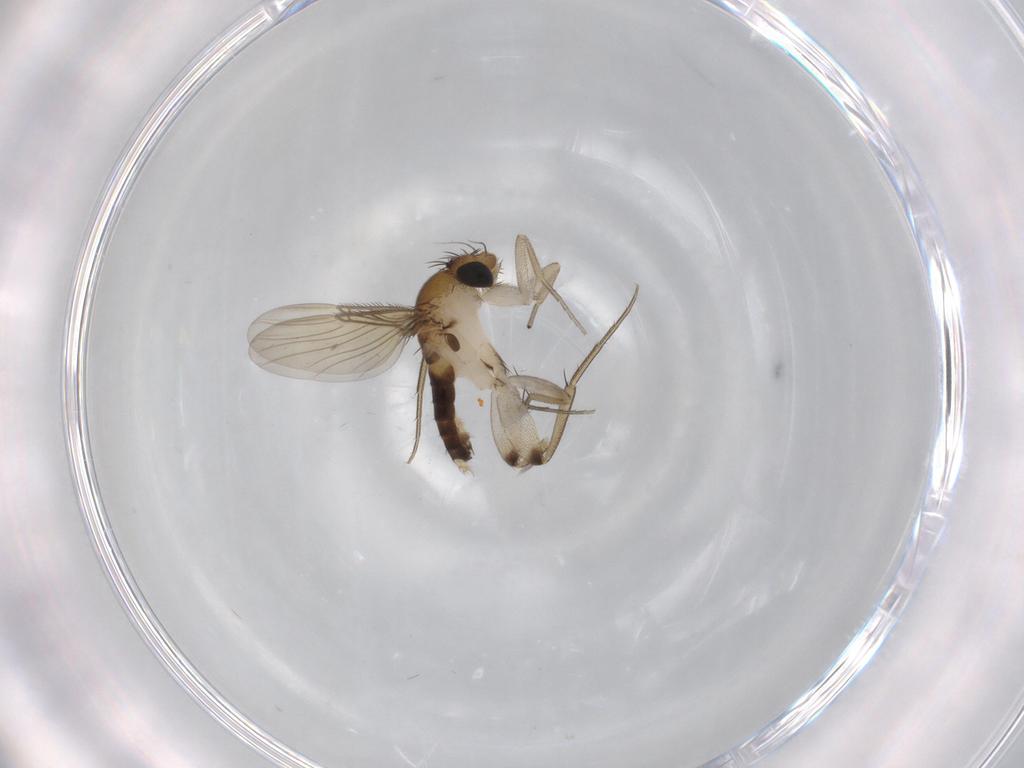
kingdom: Animalia
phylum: Arthropoda
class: Insecta
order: Diptera
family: Phoridae
